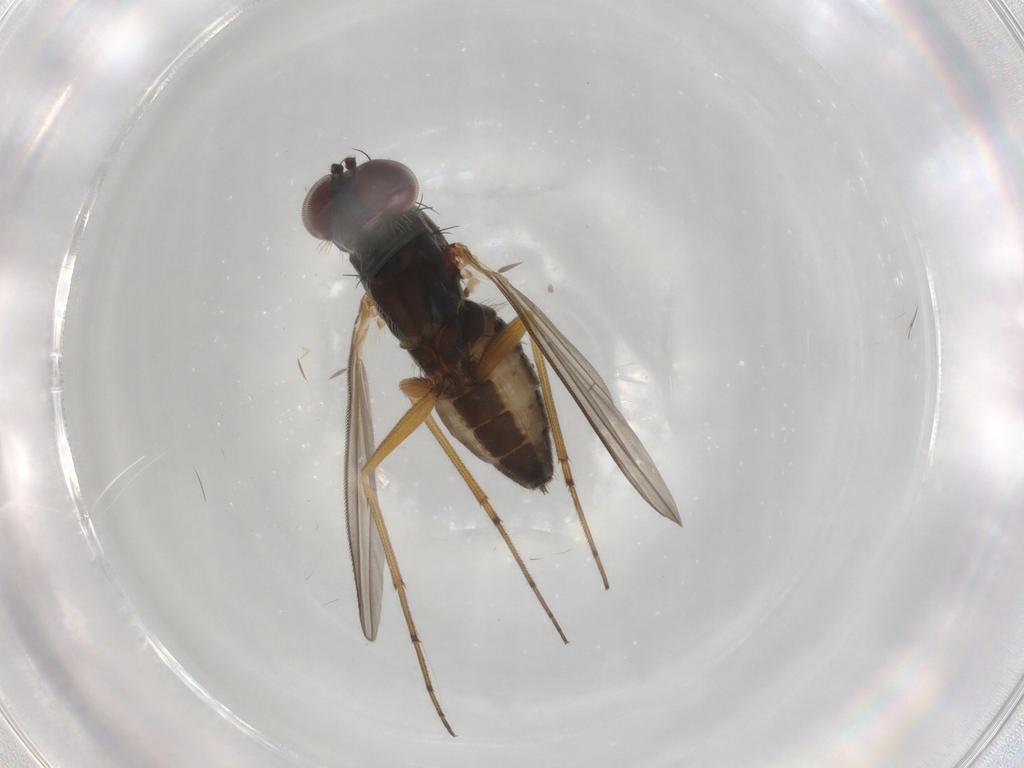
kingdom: Animalia
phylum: Arthropoda
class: Insecta
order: Diptera
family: Dolichopodidae
